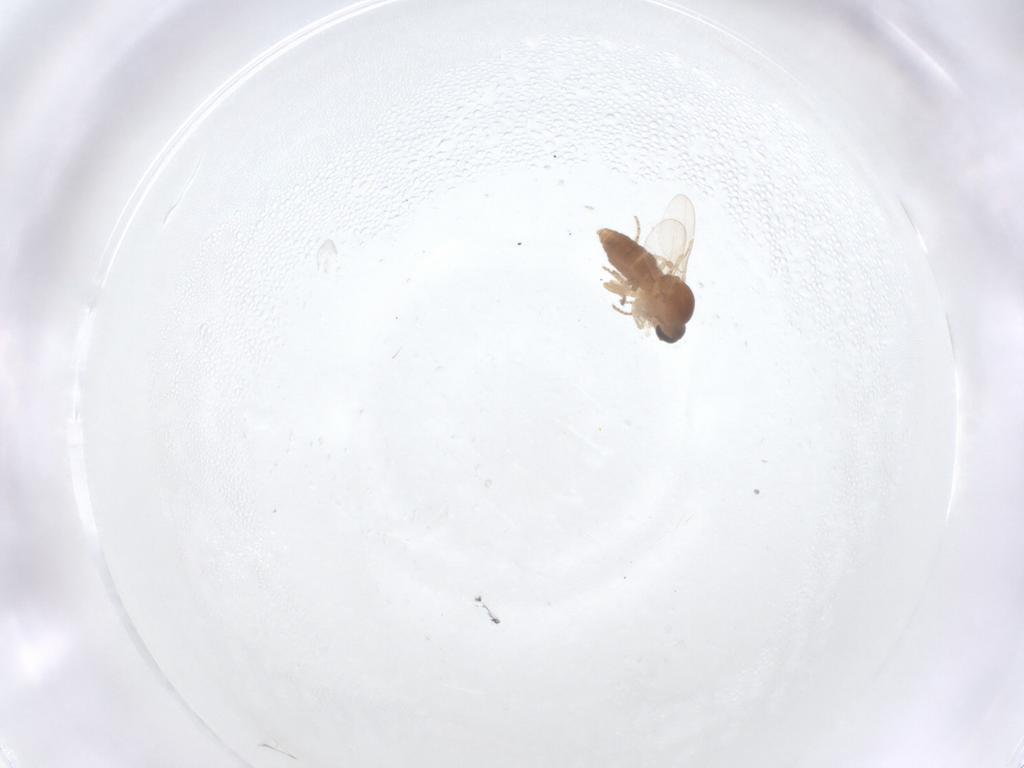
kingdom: Animalia
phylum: Arthropoda
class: Insecta
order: Diptera
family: Ceratopogonidae
